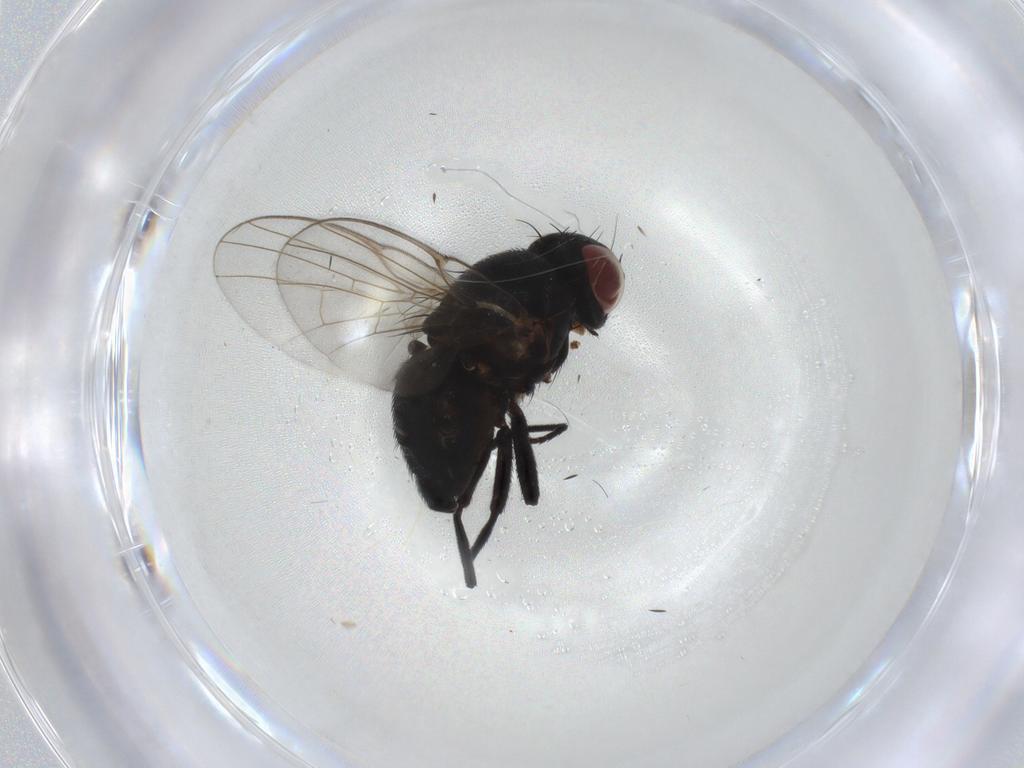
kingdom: Animalia
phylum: Arthropoda
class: Insecta
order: Diptera
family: Agromyzidae
